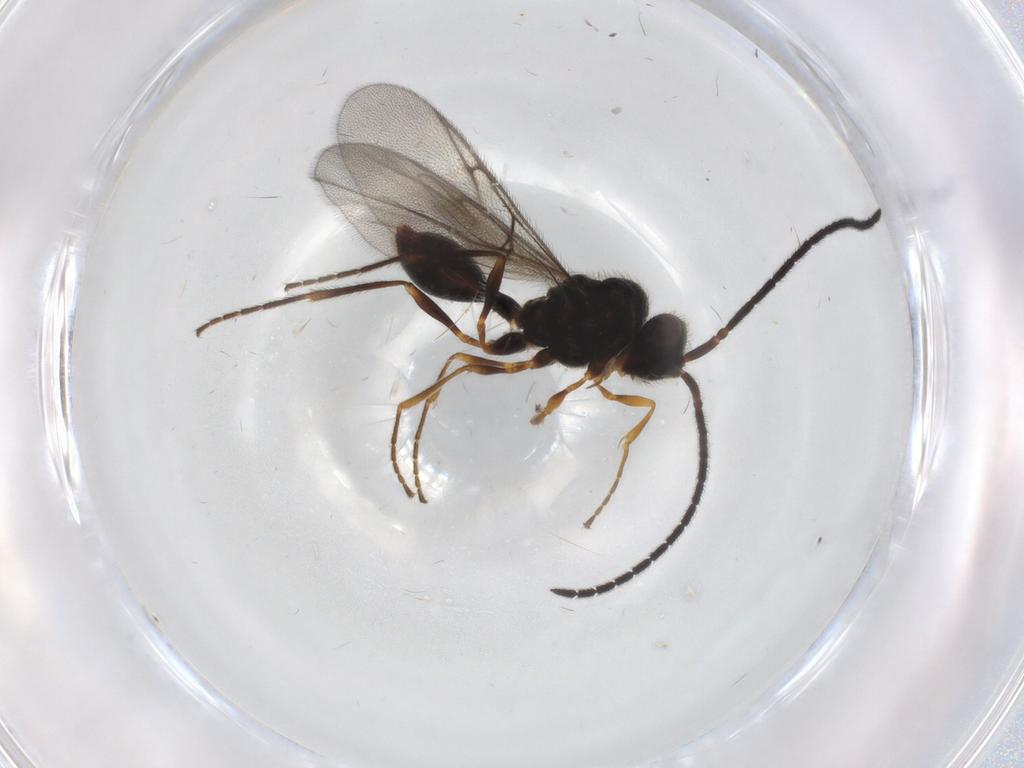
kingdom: Animalia
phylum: Arthropoda
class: Insecta
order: Hymenoptera
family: Diapriidae
